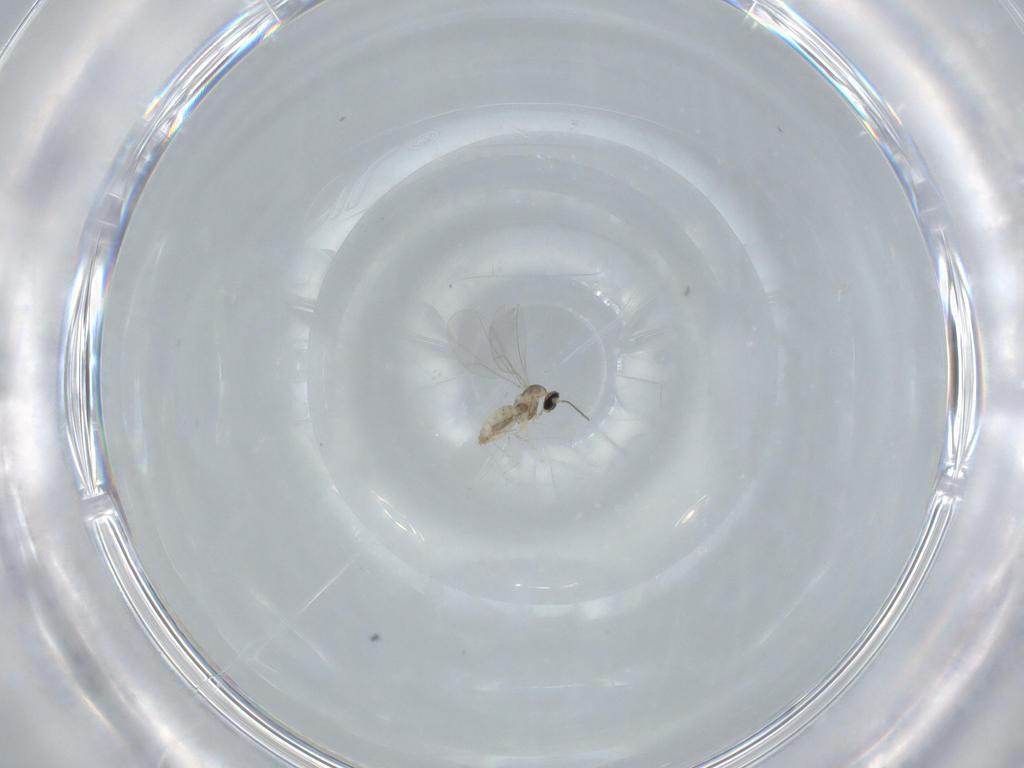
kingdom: Animalia
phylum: Arthropoda
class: Insecta
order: Diptera
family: Cecidomyiidae
